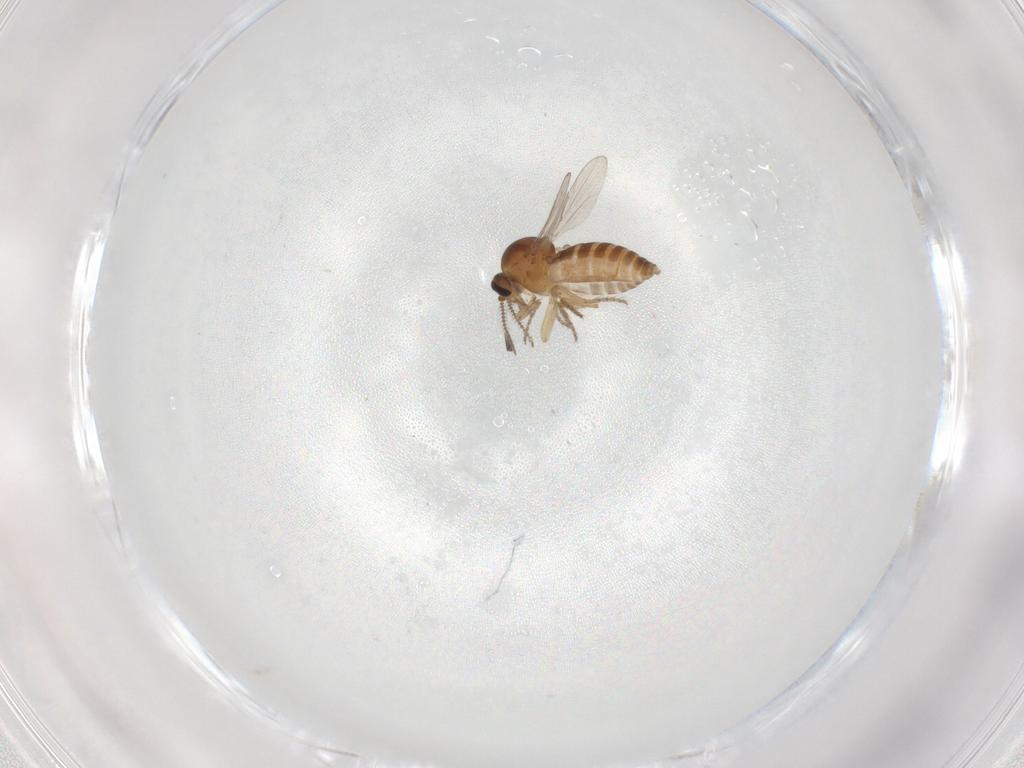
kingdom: Animalia
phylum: Arthropoda
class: Insecta
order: Diptera
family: Ceratopogonidae
